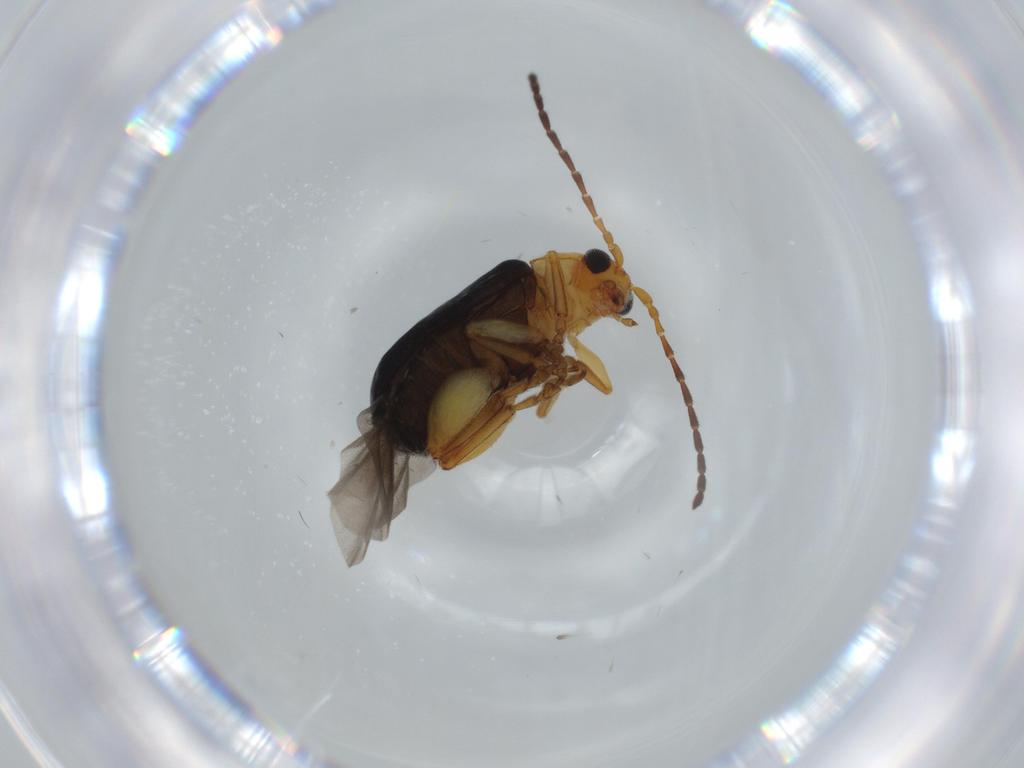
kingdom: Animalia
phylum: Arthropoda
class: Insecta
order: Coleoptera
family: Chrysomelidae
